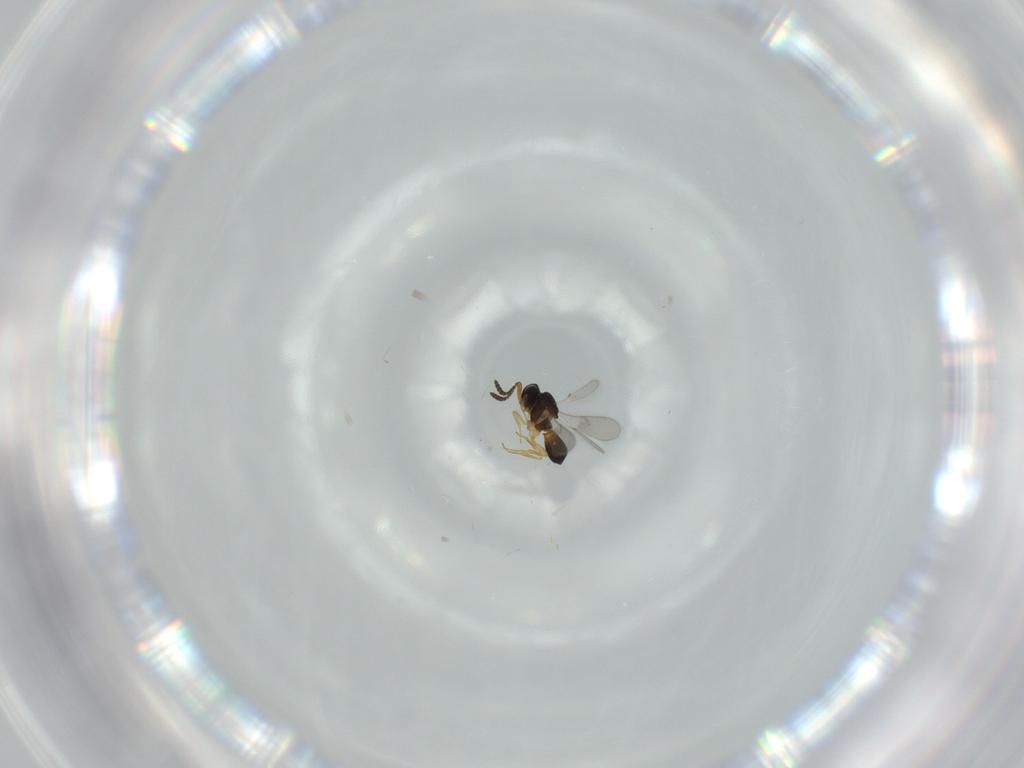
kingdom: Animalia
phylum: Arthropoda
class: Insecta
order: Hymenoptera
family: Scelionidae
